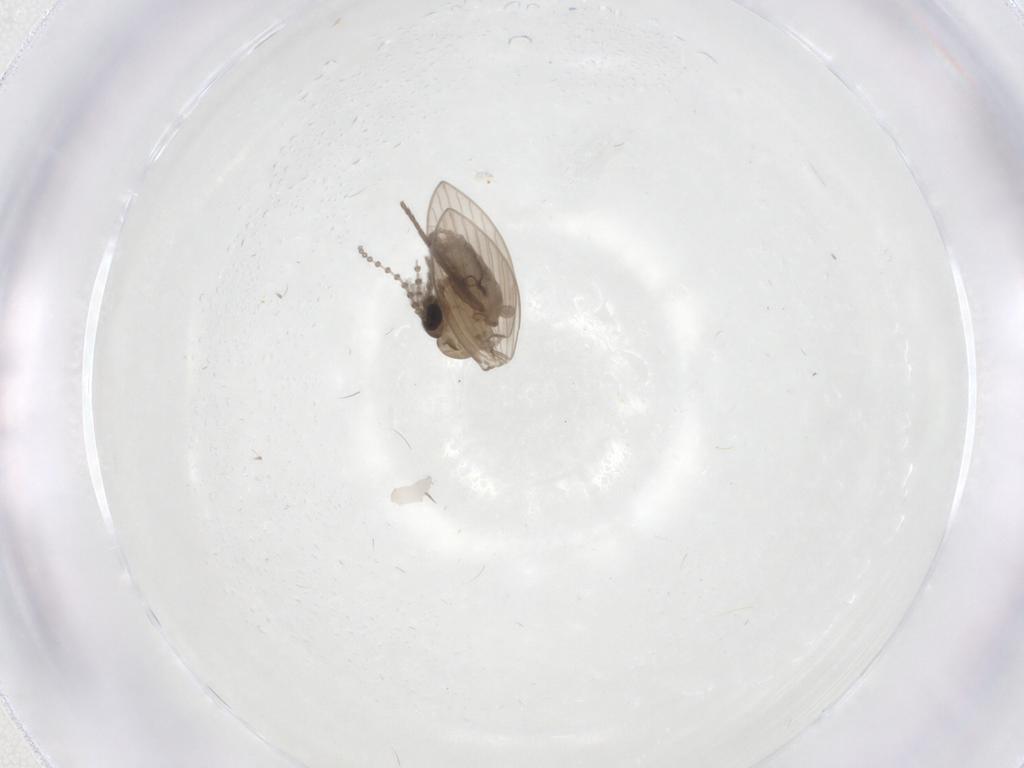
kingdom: Animalia
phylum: Arthropoda
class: Insecta
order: Diptera
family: Cecidomyiidae
